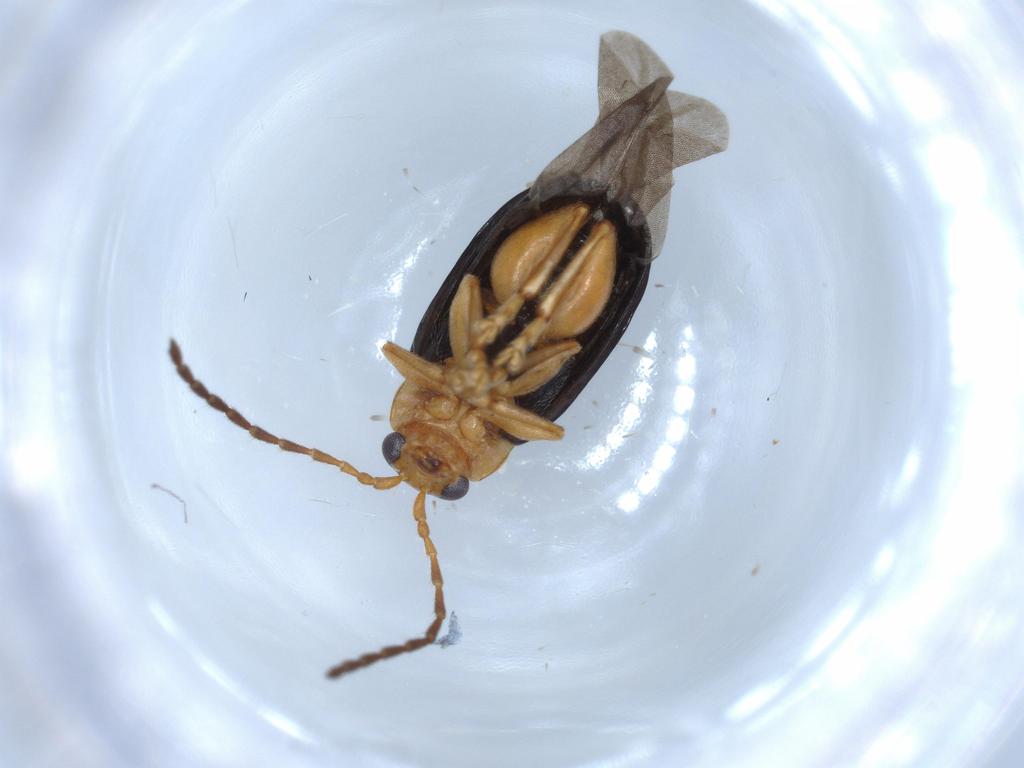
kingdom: Animalia
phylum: Arthropoda
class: Insecta
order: Coleoptera
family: Chrysomelidae
